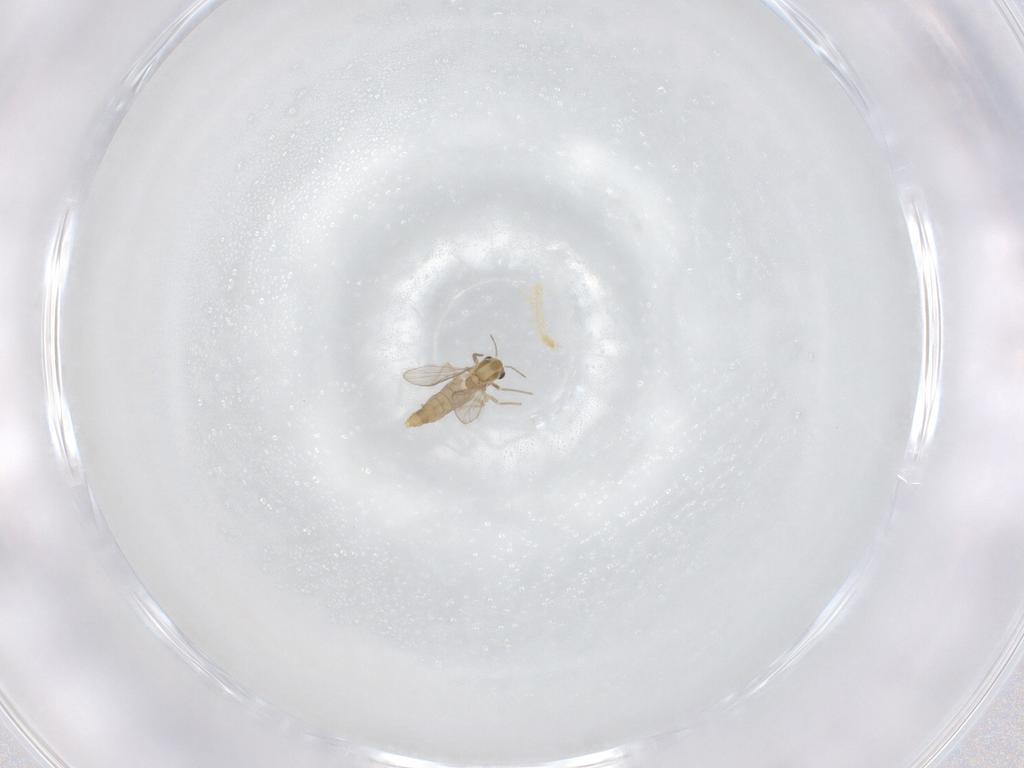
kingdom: Animalia
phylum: Arthropoda
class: Insecta
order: Diptera
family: Chironomidae
